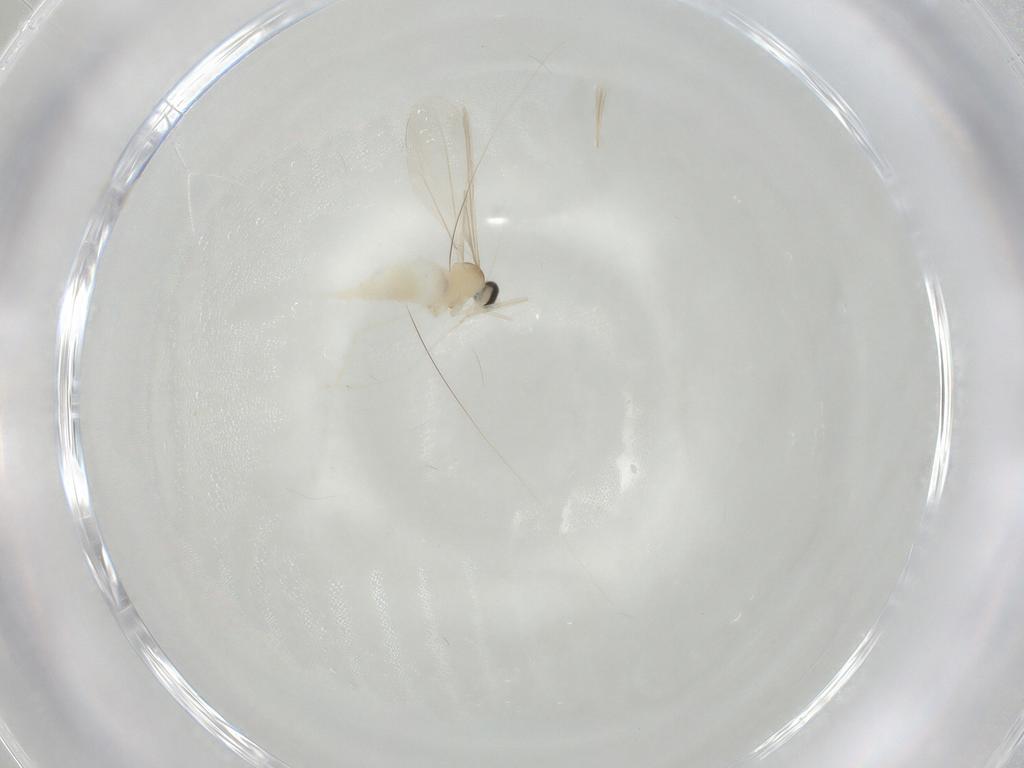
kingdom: Animalia
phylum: Arthropoda
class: Insecta
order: Diptera
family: Cecidomyiidae
